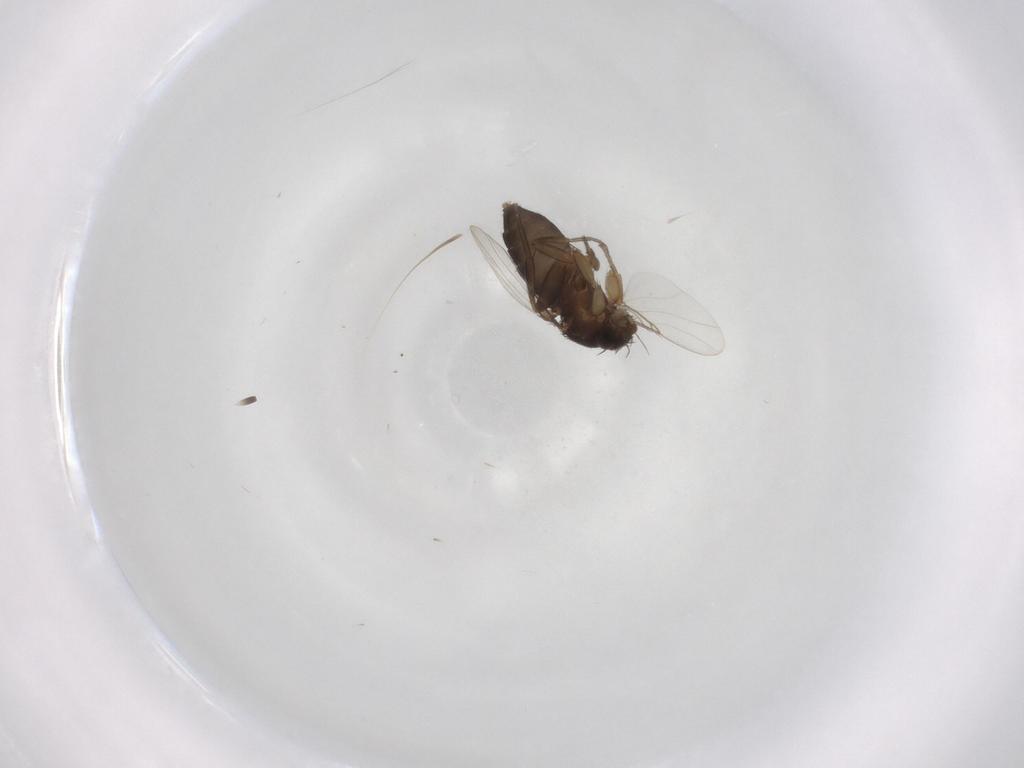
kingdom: Animalia
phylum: Arthropoda
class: Insecta
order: Diptera
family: Phoridae
